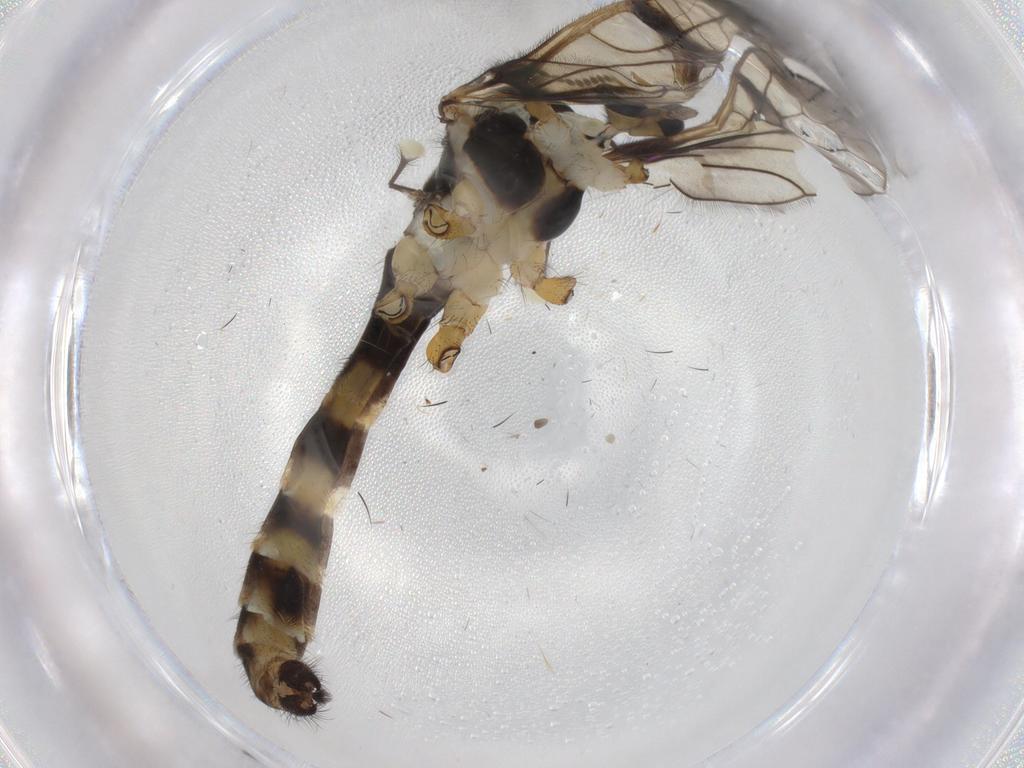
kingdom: Animalia
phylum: Arthropoda
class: Insecta
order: Diptera
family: Limoniidae
